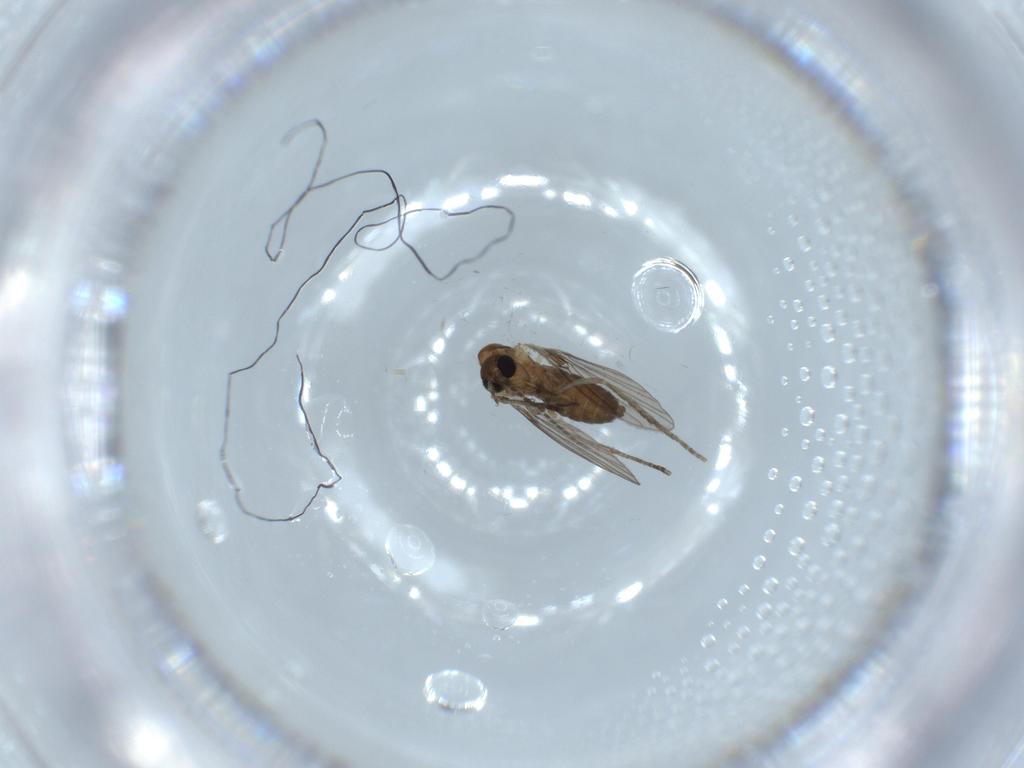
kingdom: Animalia
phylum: Arthropoda
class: Insecta
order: Diptera
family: Psychodidae
